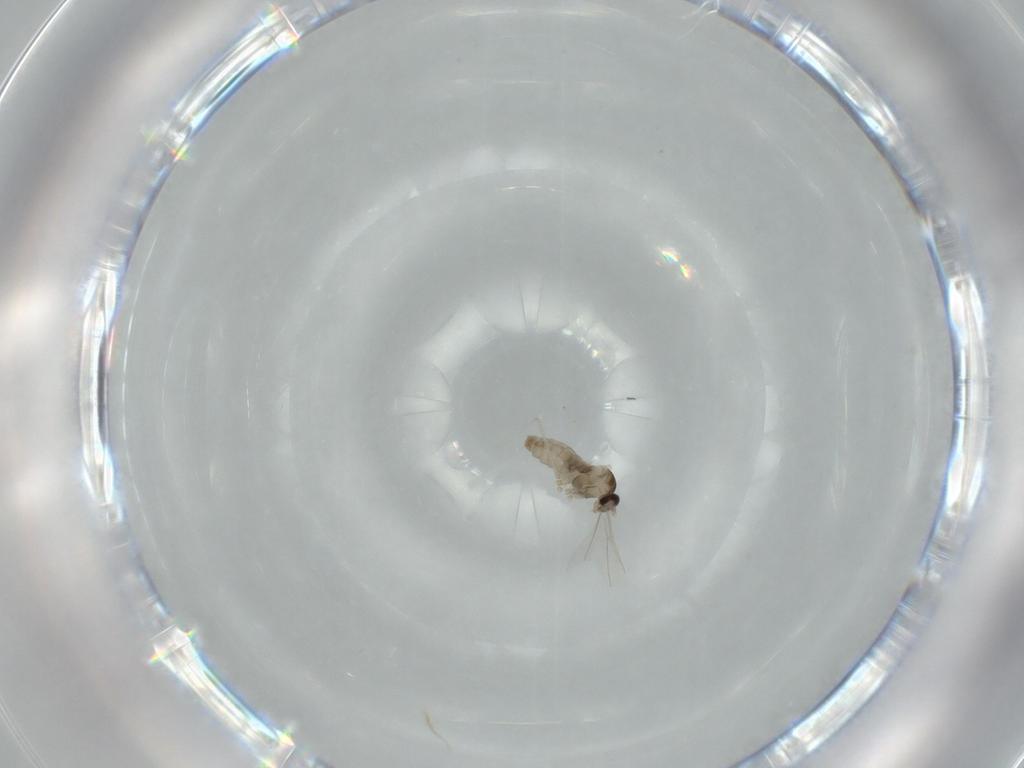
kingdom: Animalia
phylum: Arthropoda
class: Insecta
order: Diptera
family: Cecidomyiidae
